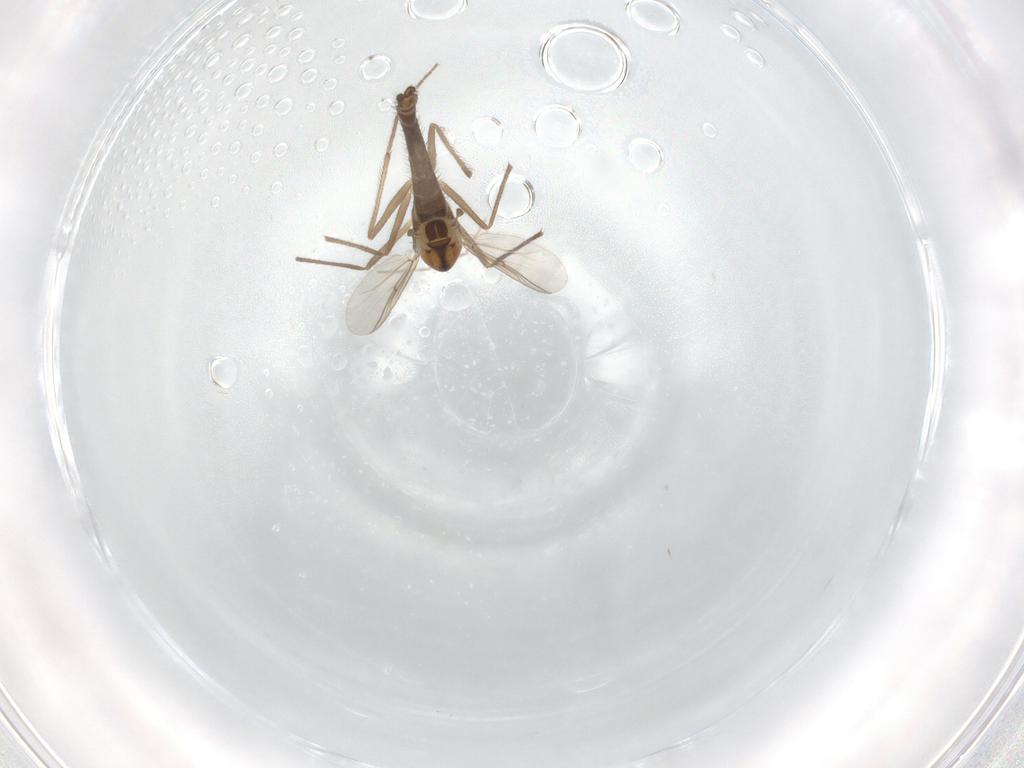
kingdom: Animalia
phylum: Arthropoda
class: Insecta
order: Diptera
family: Chironomidae
